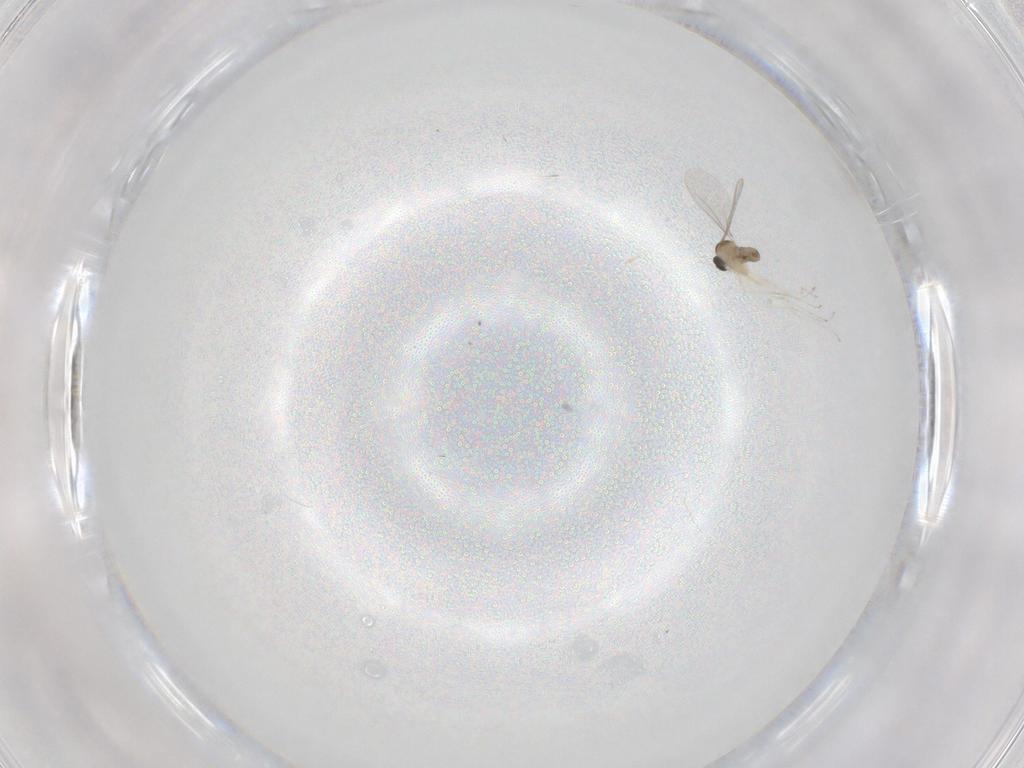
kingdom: Animalia
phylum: Arthropoda
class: Insecta
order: Diptera
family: Cecidomyiidae
